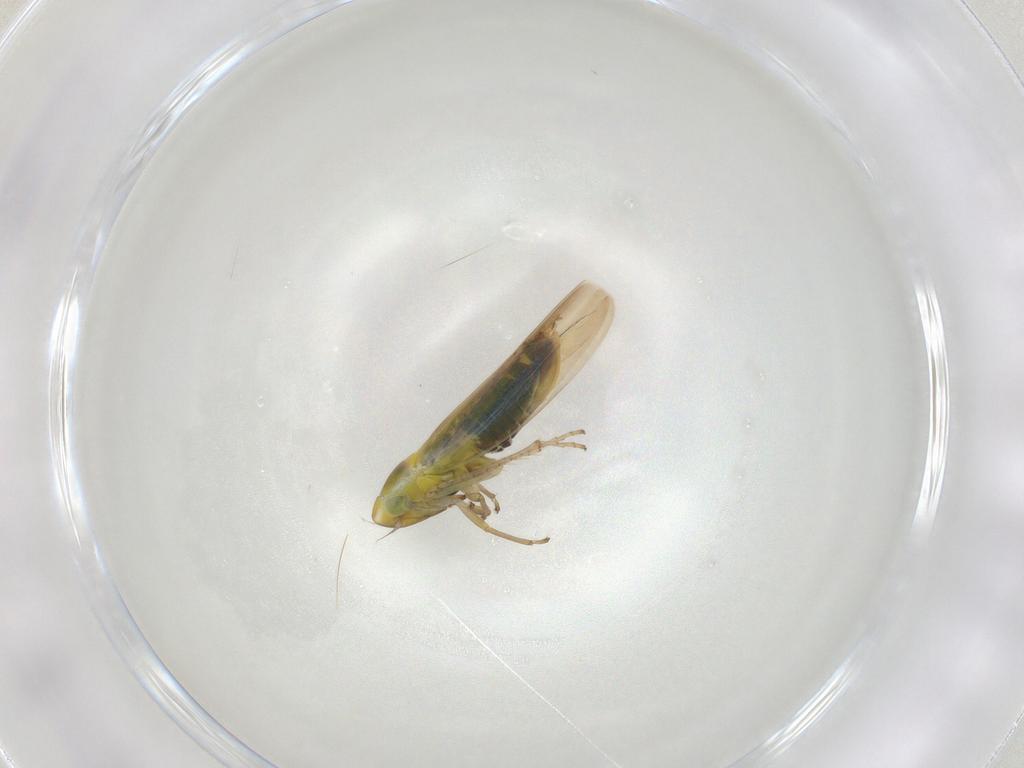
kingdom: Animalia
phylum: Arthropoda
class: Insecta
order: Hemiptera
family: Cicadellidae
